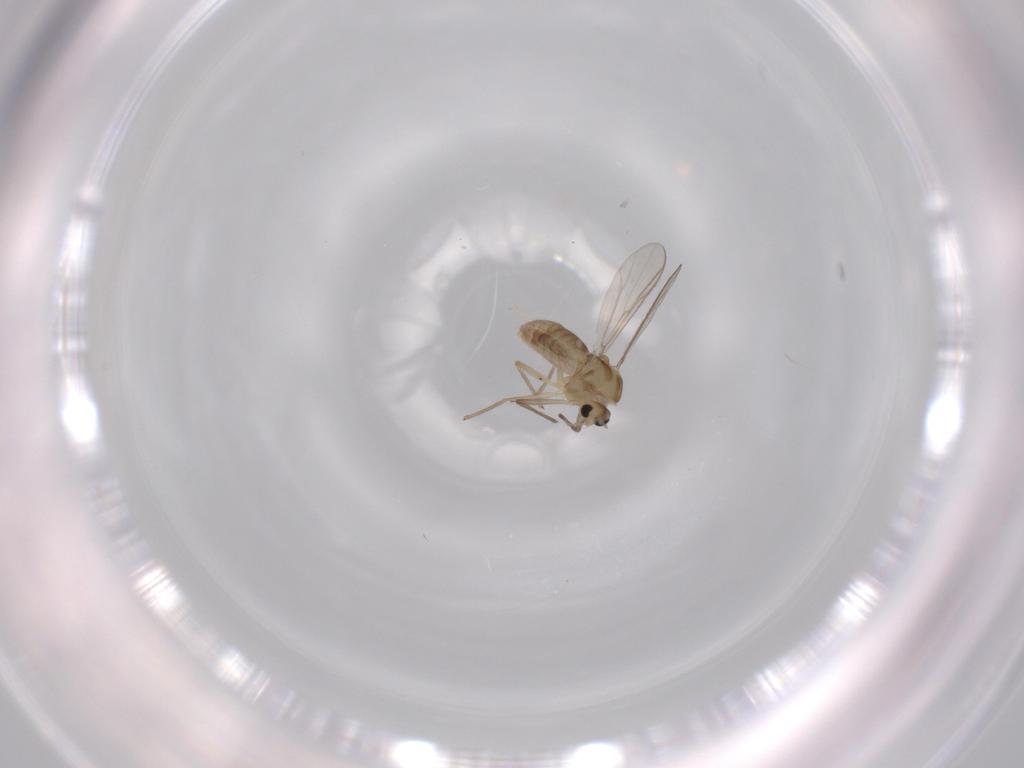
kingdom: Animalia
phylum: Arthropoda
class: Insecta
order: Diptera
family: Chironomidae
